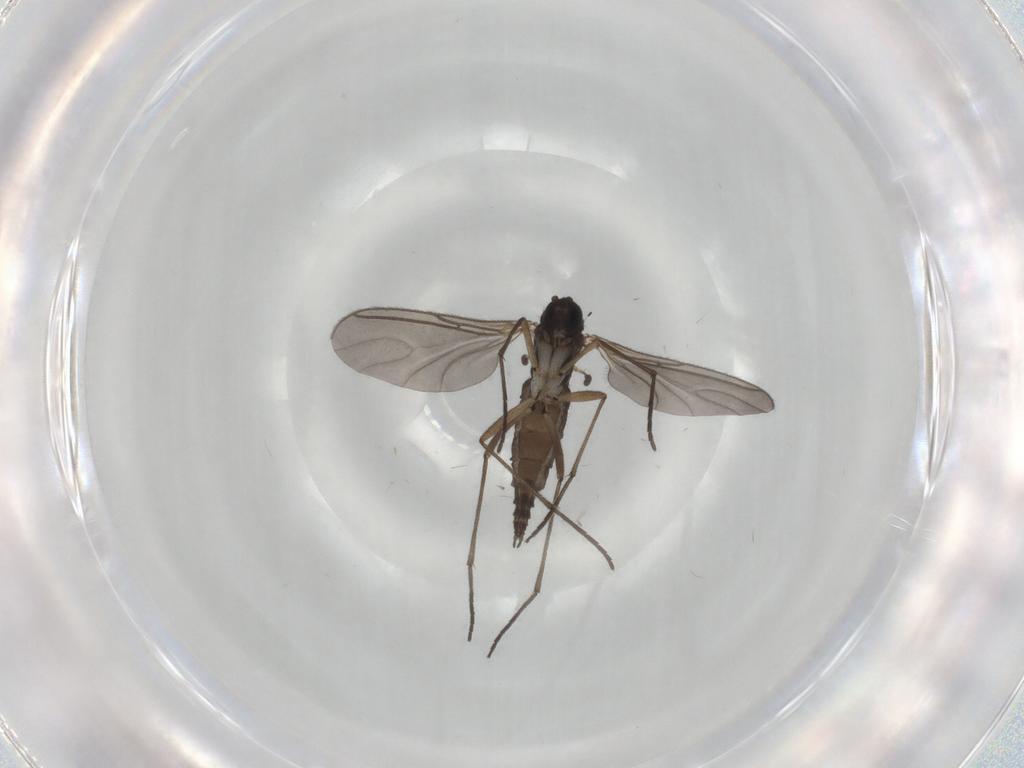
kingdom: Animalia
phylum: Arthropoda
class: Insecta
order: Diptera
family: Sciaridae
